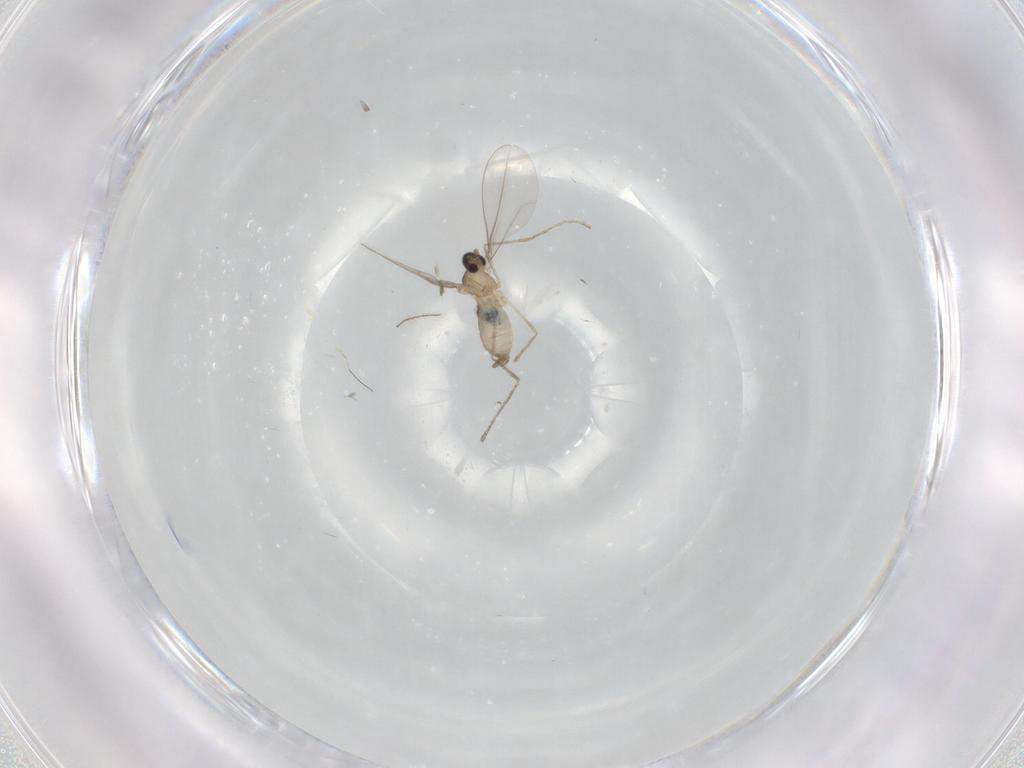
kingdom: Animalia
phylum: Arthropoda
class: Insecta
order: Diptera
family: Cecidomyiidae
